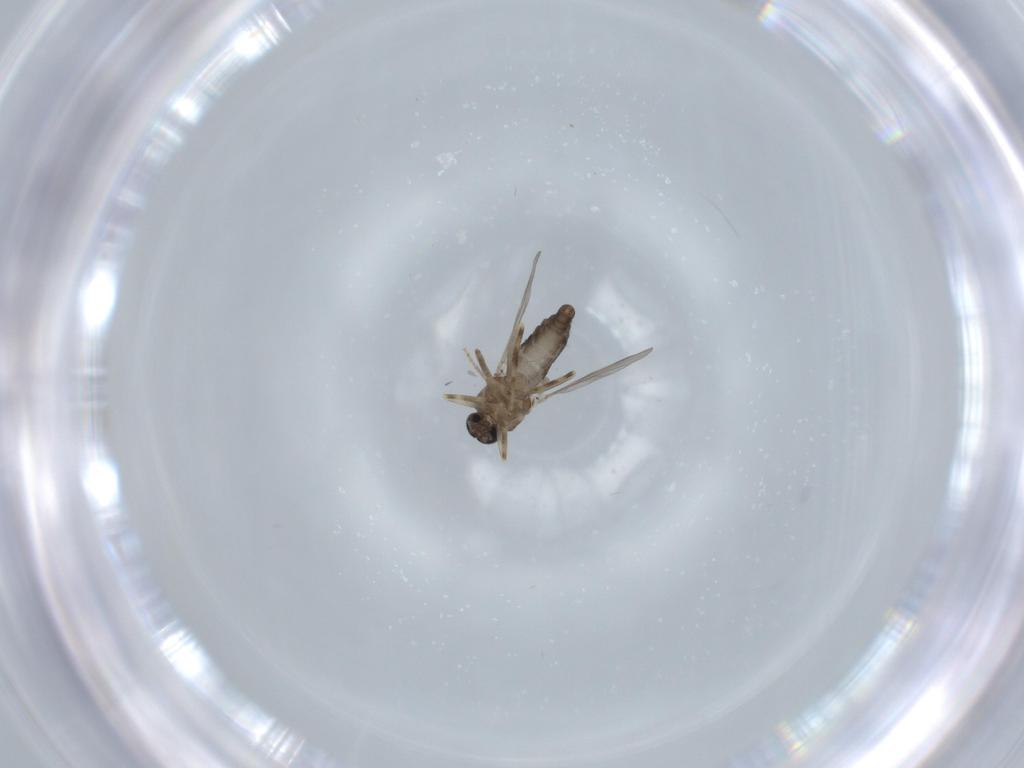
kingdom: Animalia
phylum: Arthropoda
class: Insecta
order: Diptera
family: Ceratopogonidae
